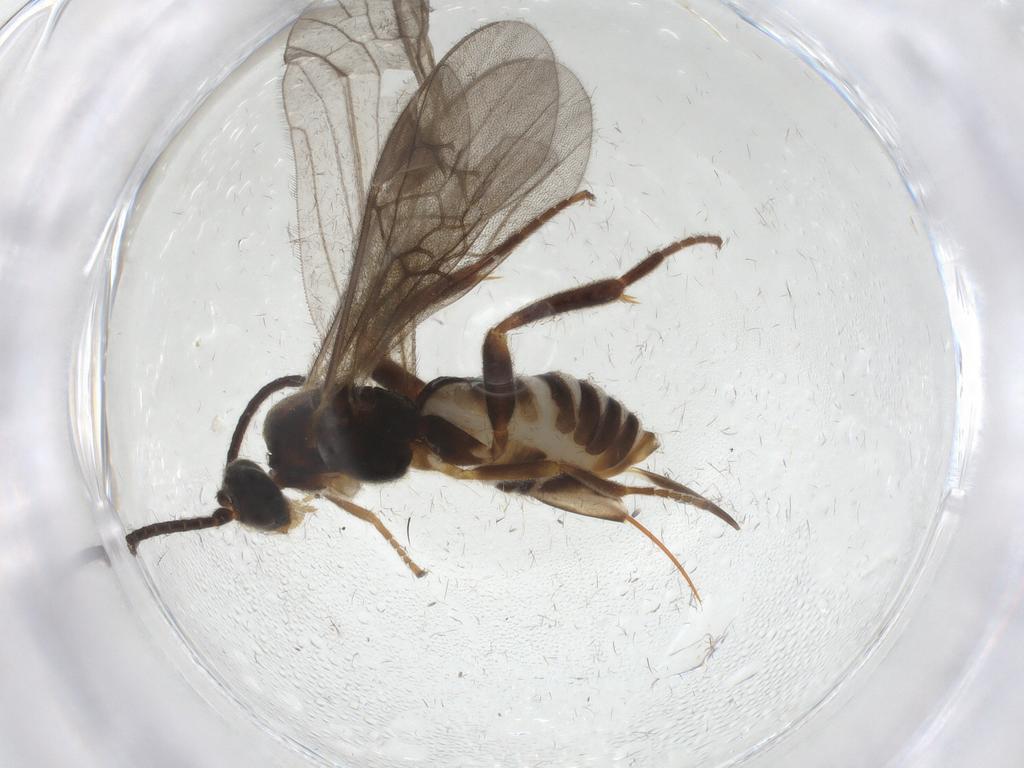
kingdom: Animalia
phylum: Arthropoda
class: Insecta
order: Hymenoptera
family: Braconidae
